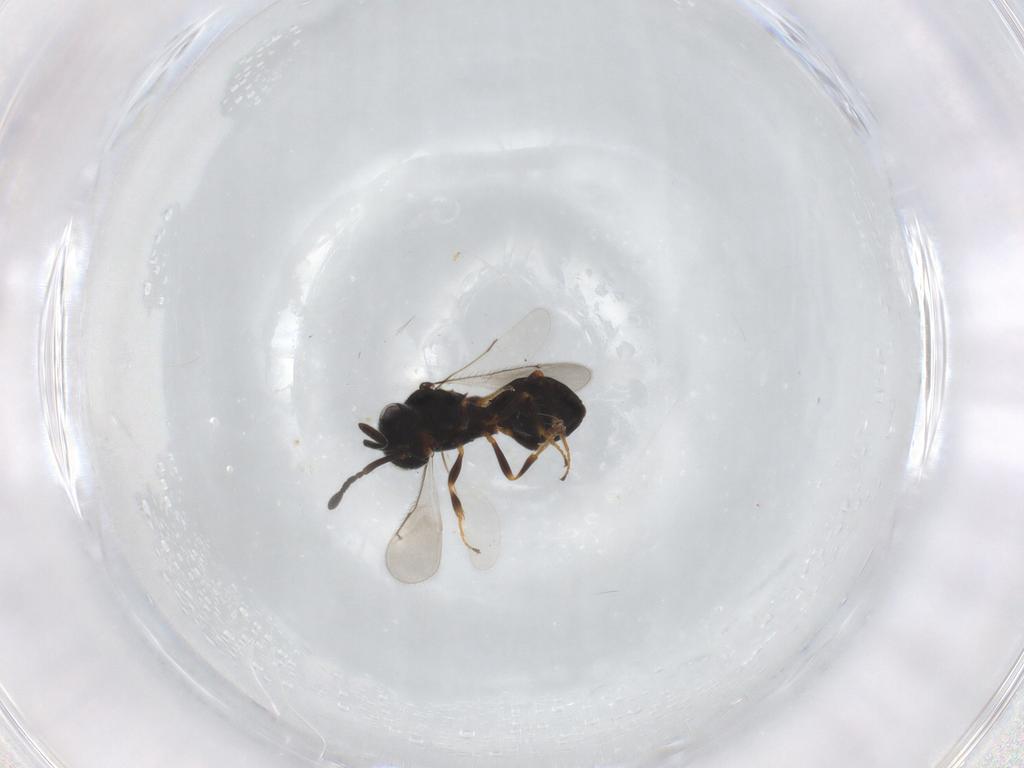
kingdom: Animalia
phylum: Arthropoda
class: Insecta
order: Hymenoptera
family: Scelionidae
